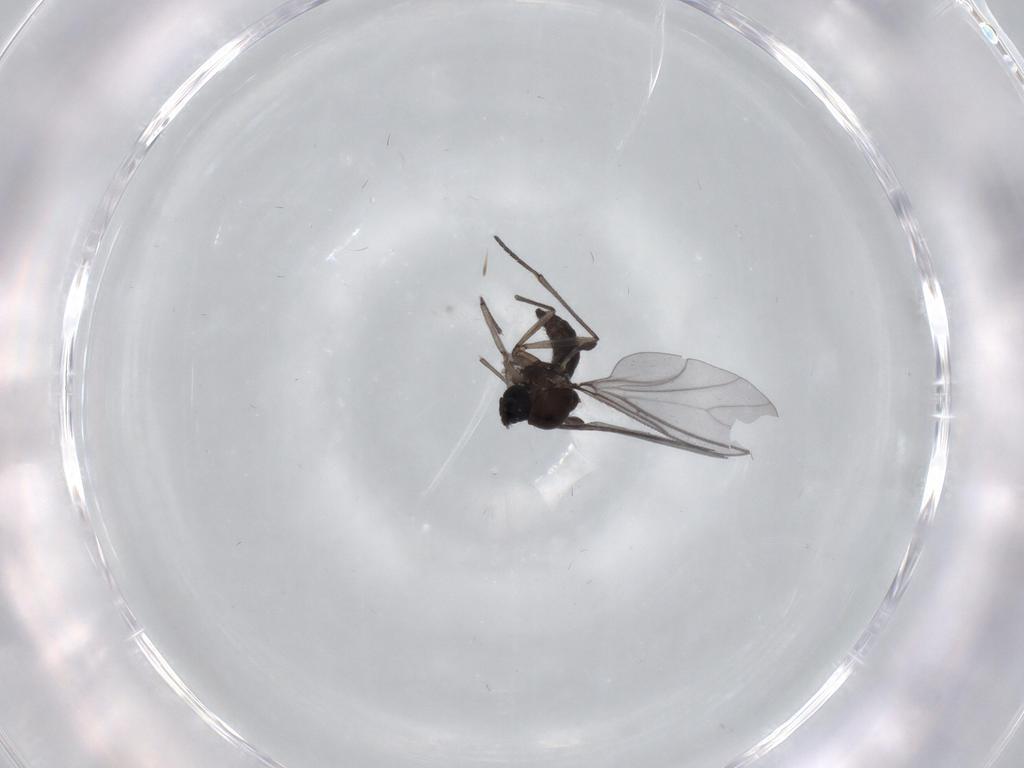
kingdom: Animalia
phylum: Arthropoda
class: Insecta
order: Diptera
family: Sciaridae
